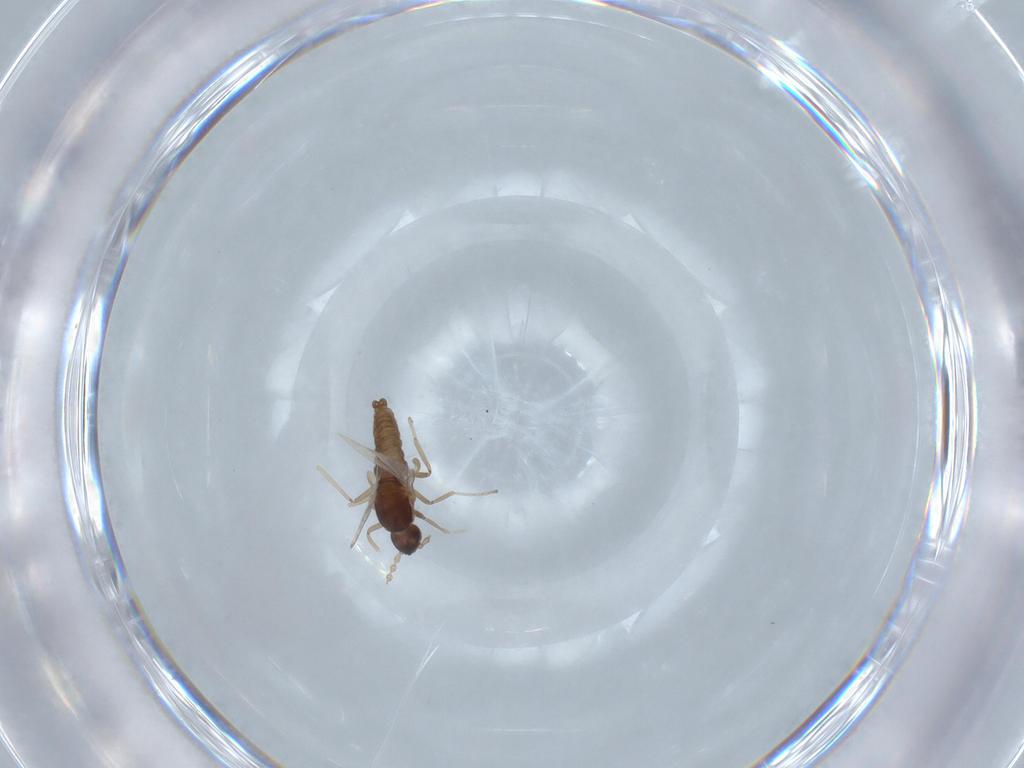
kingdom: Animalia
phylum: Arthropoda
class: Insecta
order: Diptera
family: Cecidomyiidae
